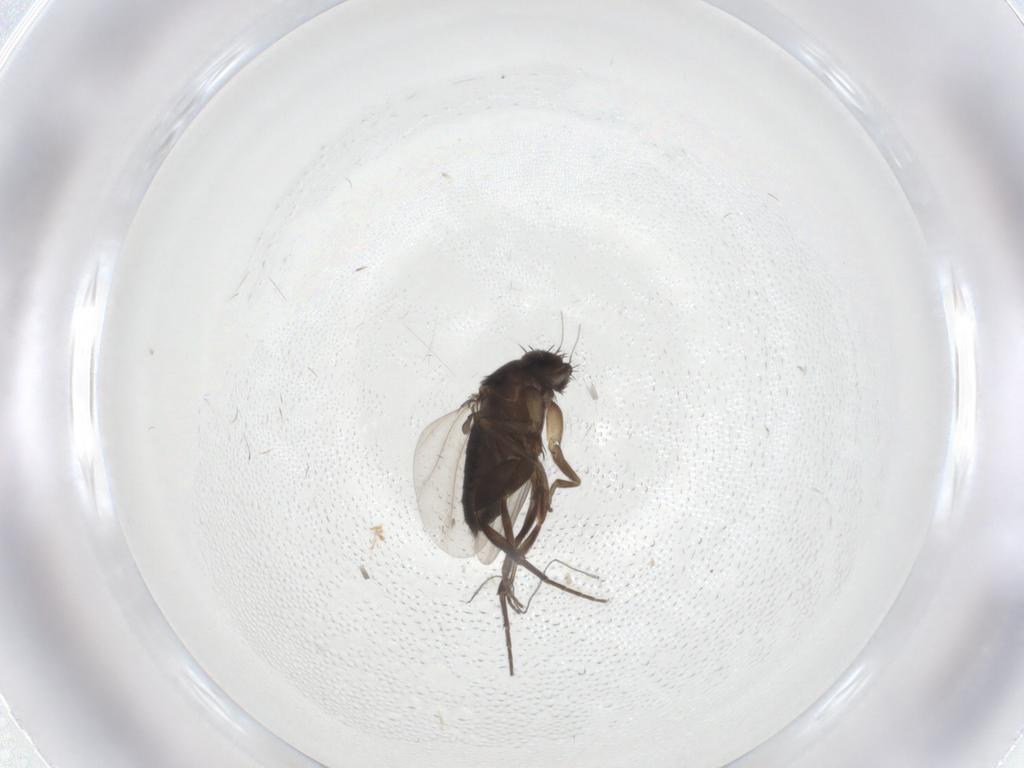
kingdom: Animalia
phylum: Arthropoda
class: Insecta
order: Diptera
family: Phoridae
